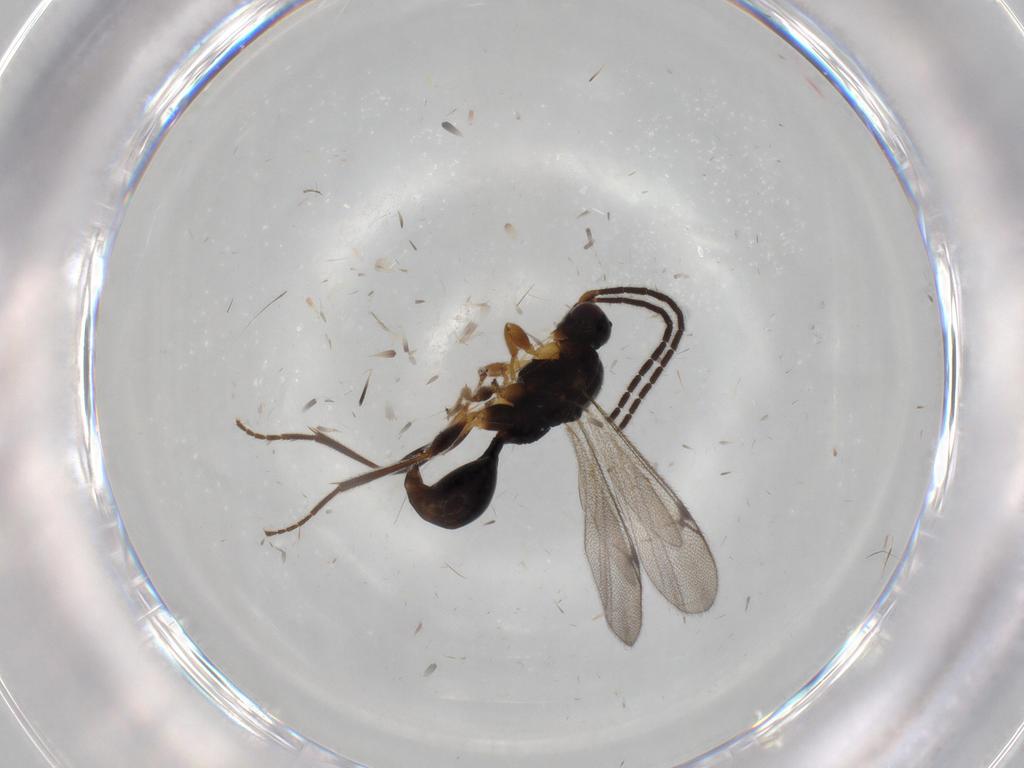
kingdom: Animalia
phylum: Arthropoda
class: Insecta
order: Hymenoptera
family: Proctotrupidae
